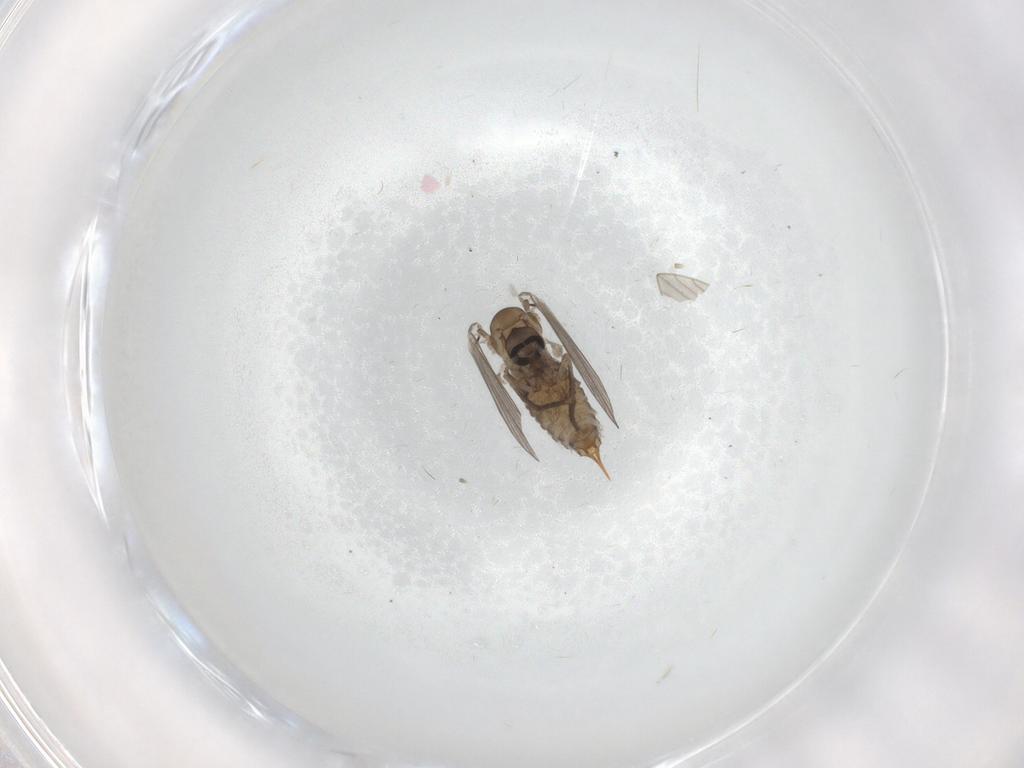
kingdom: Animalia
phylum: Arthropoda
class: Insecta
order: Diptera
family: Psychodidae
